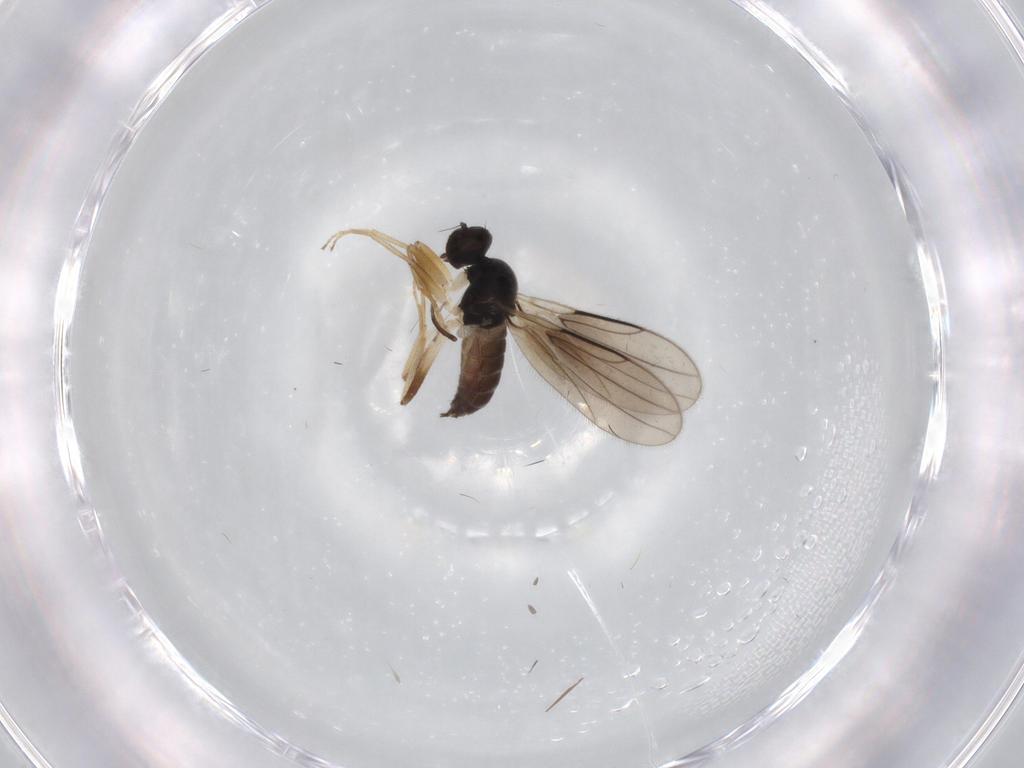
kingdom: Animalia
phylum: Arthropoda
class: Insecta
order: Diptera
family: Hybotidae
